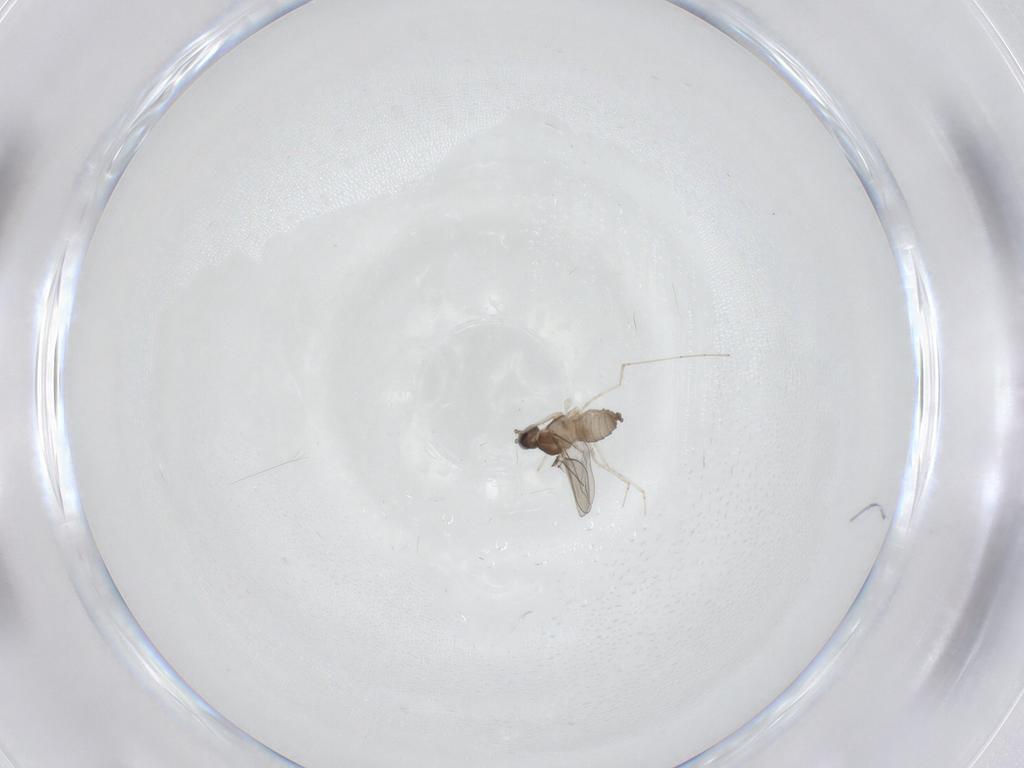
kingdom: Animalia
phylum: Arthropoda
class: Insecta
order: Diptera
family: Cecidomyiidae
